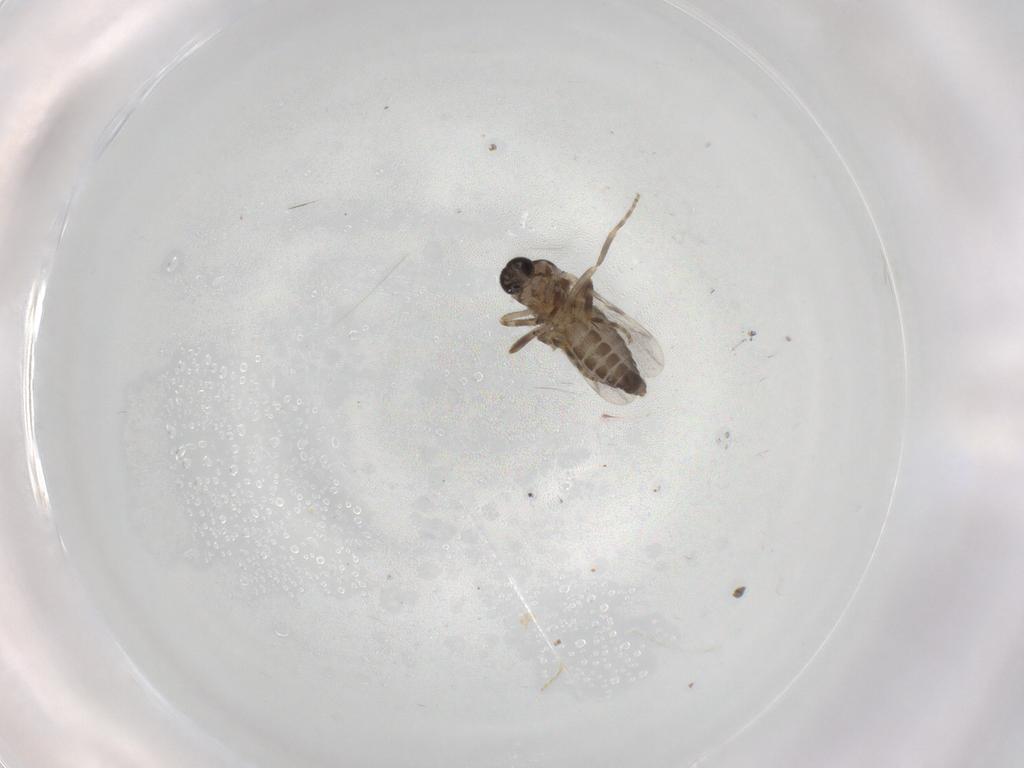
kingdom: Animalia
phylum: Arthropoda
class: Insecta
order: Diptera
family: Ceratopogonidae
